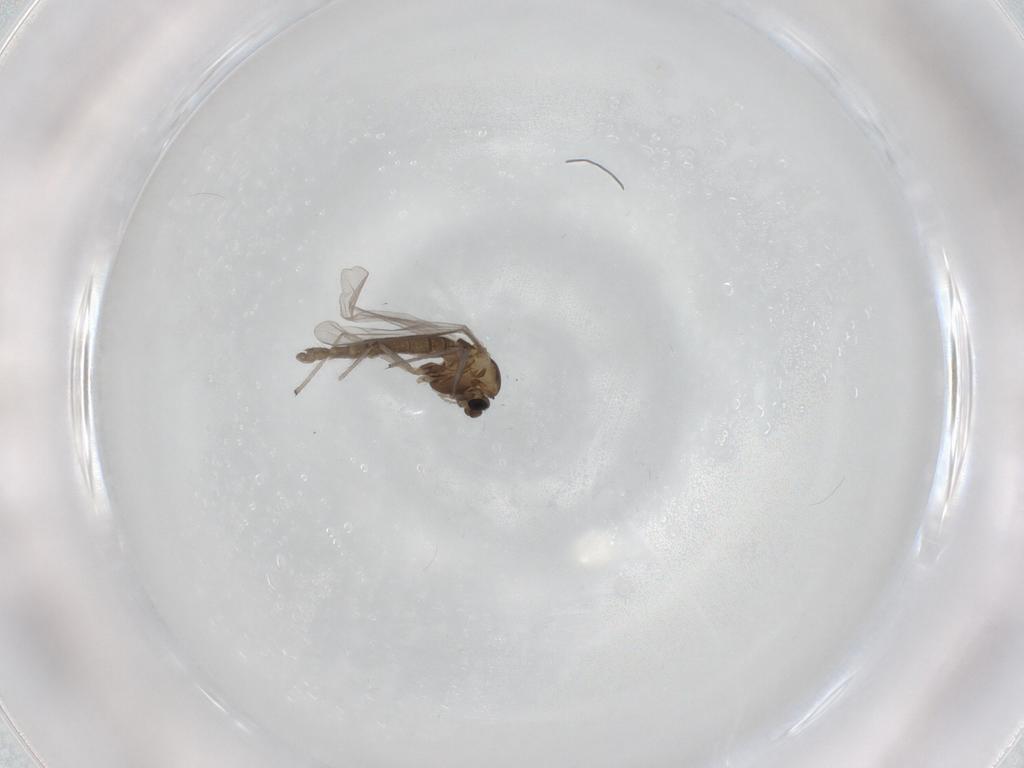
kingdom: Animalia
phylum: Arthropoda
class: Insecta
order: Diptera
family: Chironomidae
